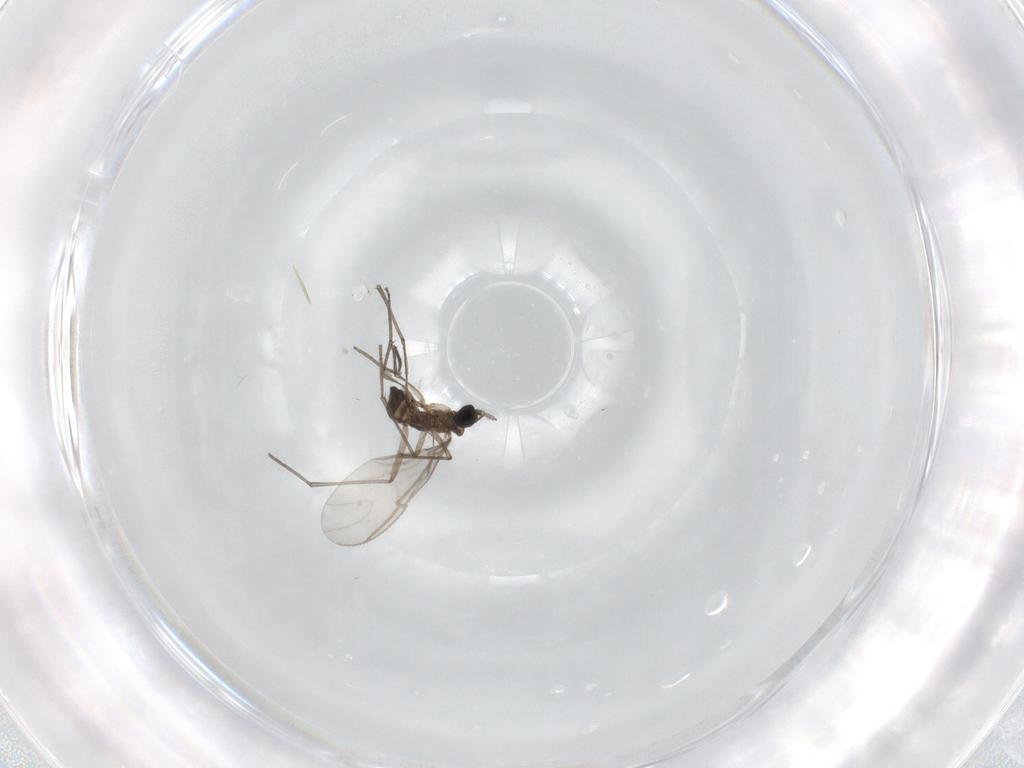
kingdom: Animalia
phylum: Arthropoda
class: Insecta
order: Diptera
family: Sciaridae
